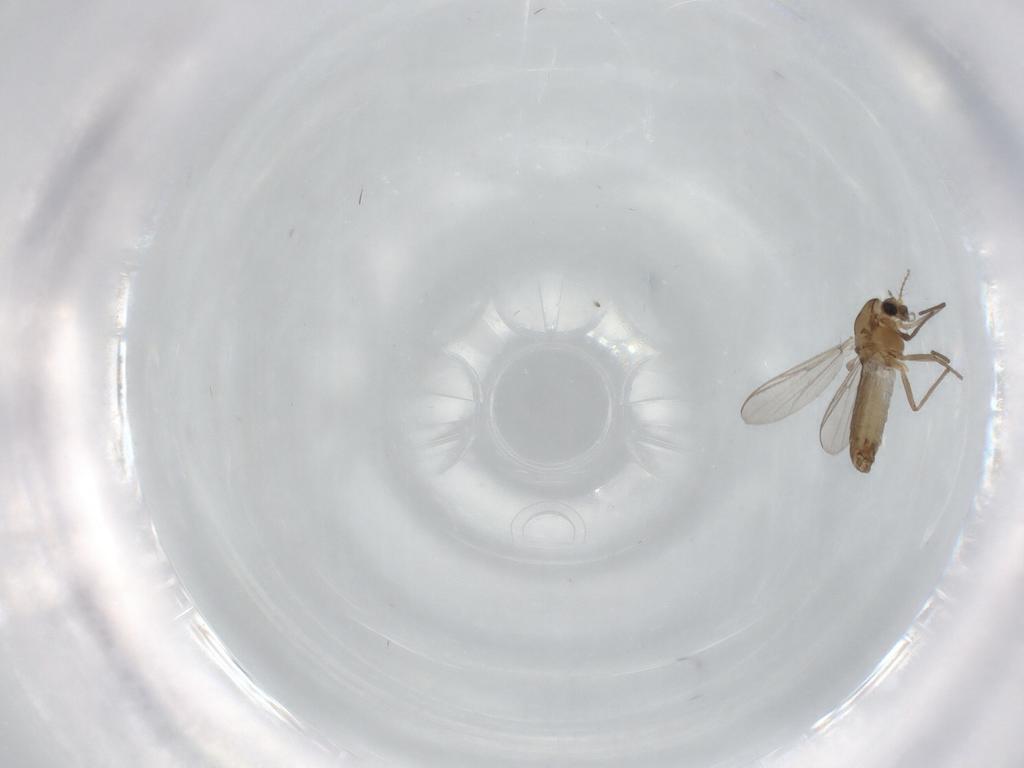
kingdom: Animalia
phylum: Arthropoda
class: Insecta
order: Diptera
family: Chironomidae
